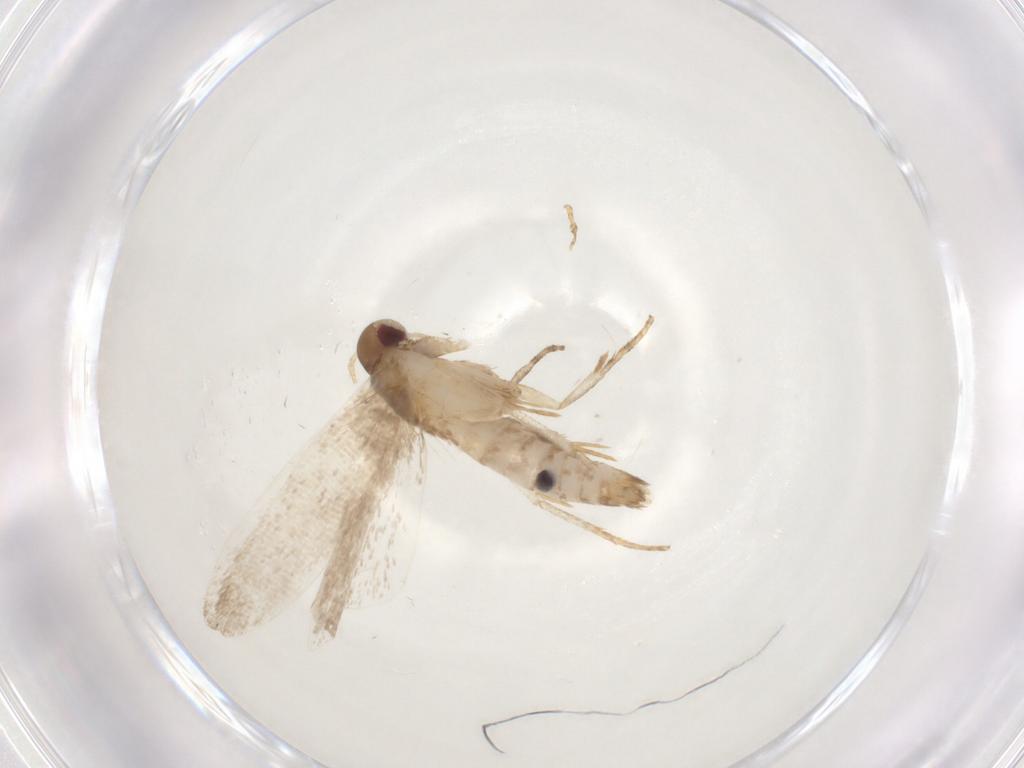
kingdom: Animalia
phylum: Arthropoda
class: Insecta
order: Lepidoptera
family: Gelechiidae
